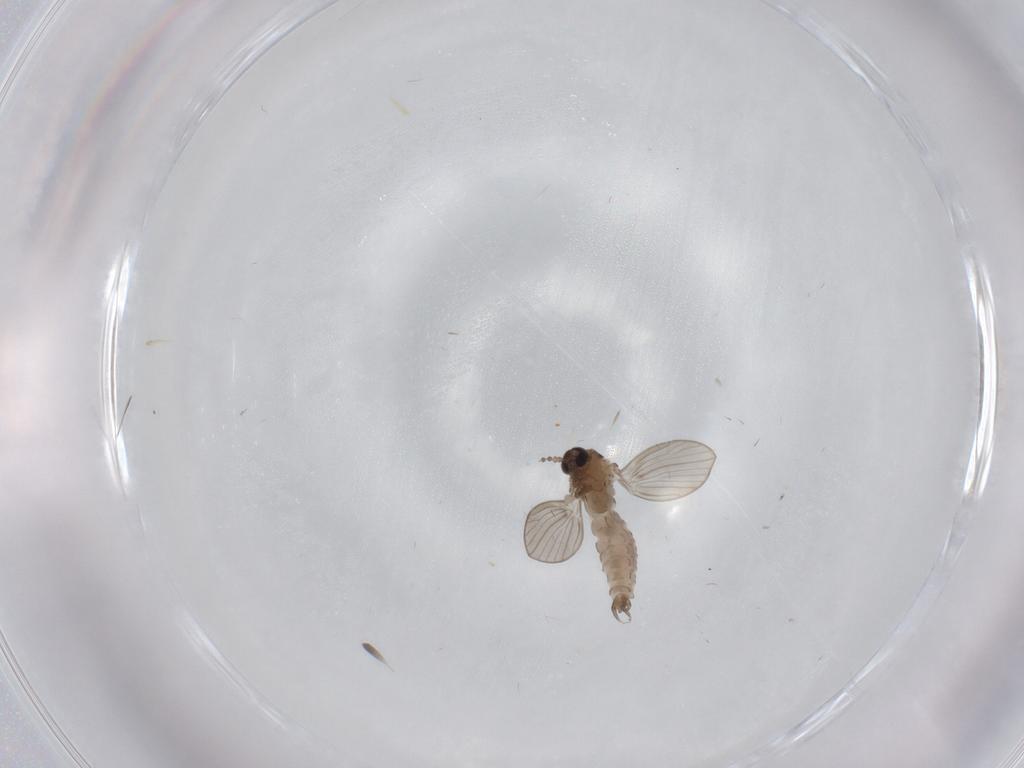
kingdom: Animalia
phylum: Arthropoda
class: Insecta
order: Diptera
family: Psychodidae
